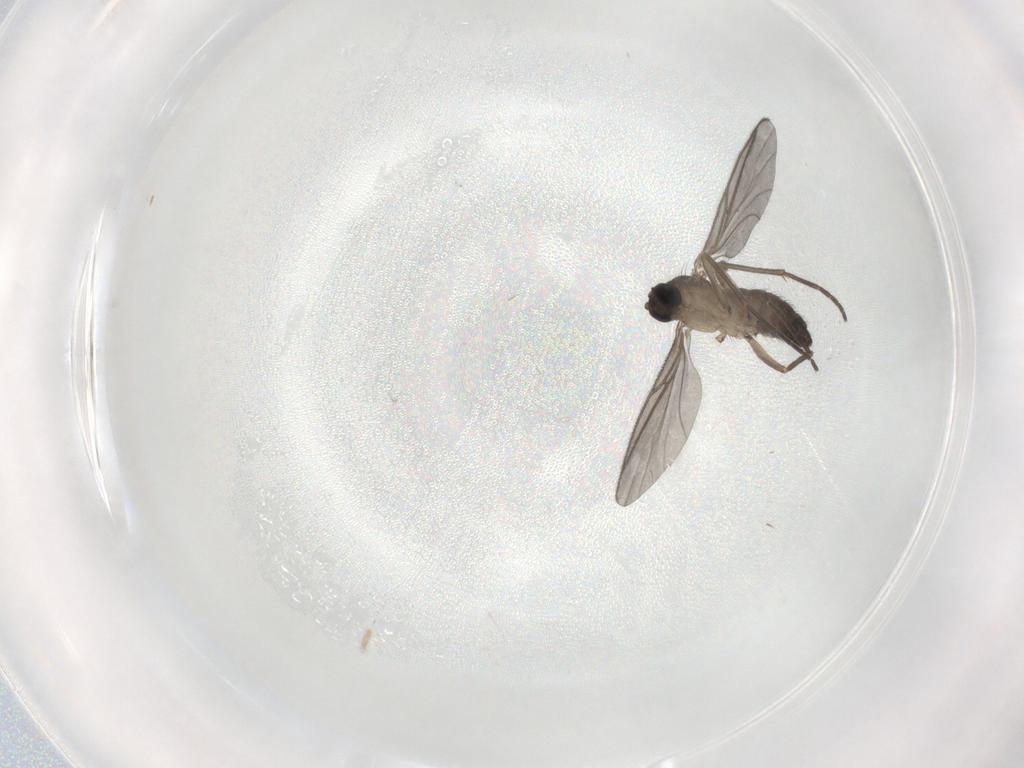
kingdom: Animalia
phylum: Arthropoda
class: Insecta
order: Diptera
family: Sciaridae
